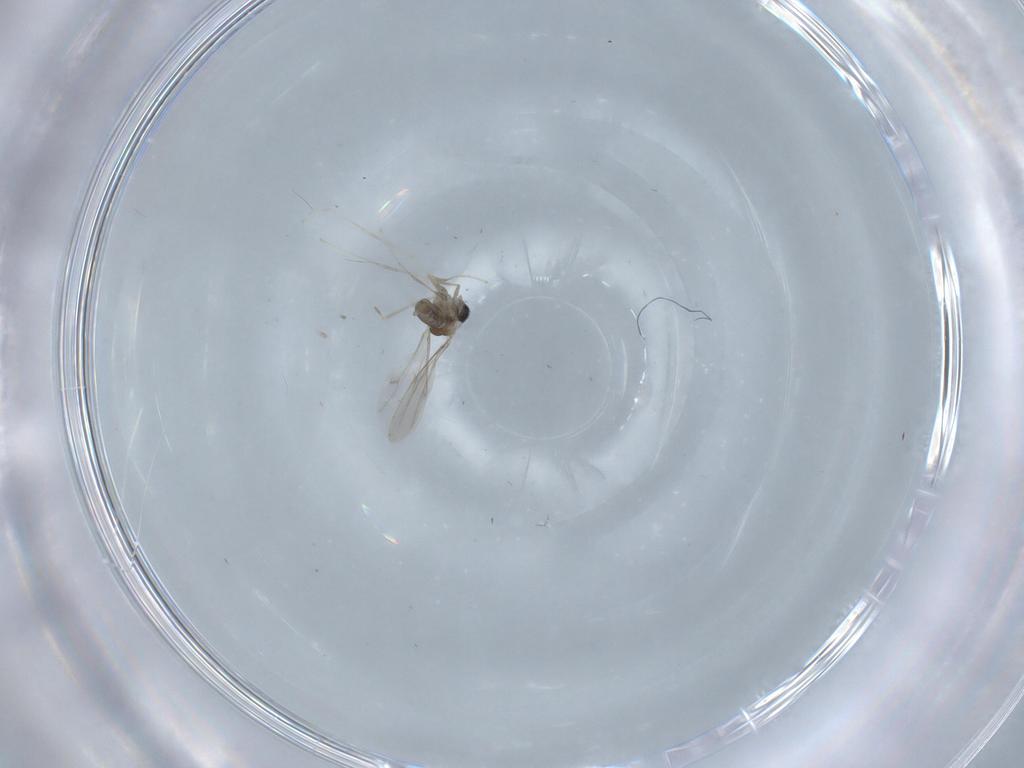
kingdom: Animalia
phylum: Arthropoda
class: Insecta
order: Diptera
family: Cecidomyiidae
